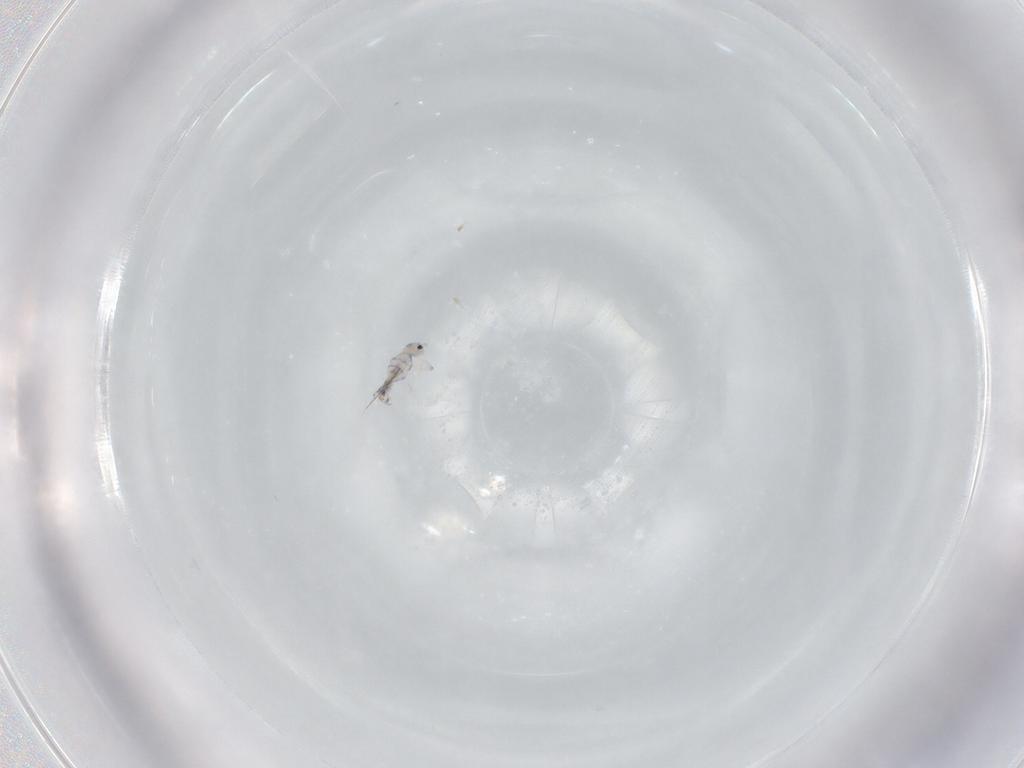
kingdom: Animalia
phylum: Arthropoda
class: Collembola
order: Entomobryomorpha
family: Entomobryidae
